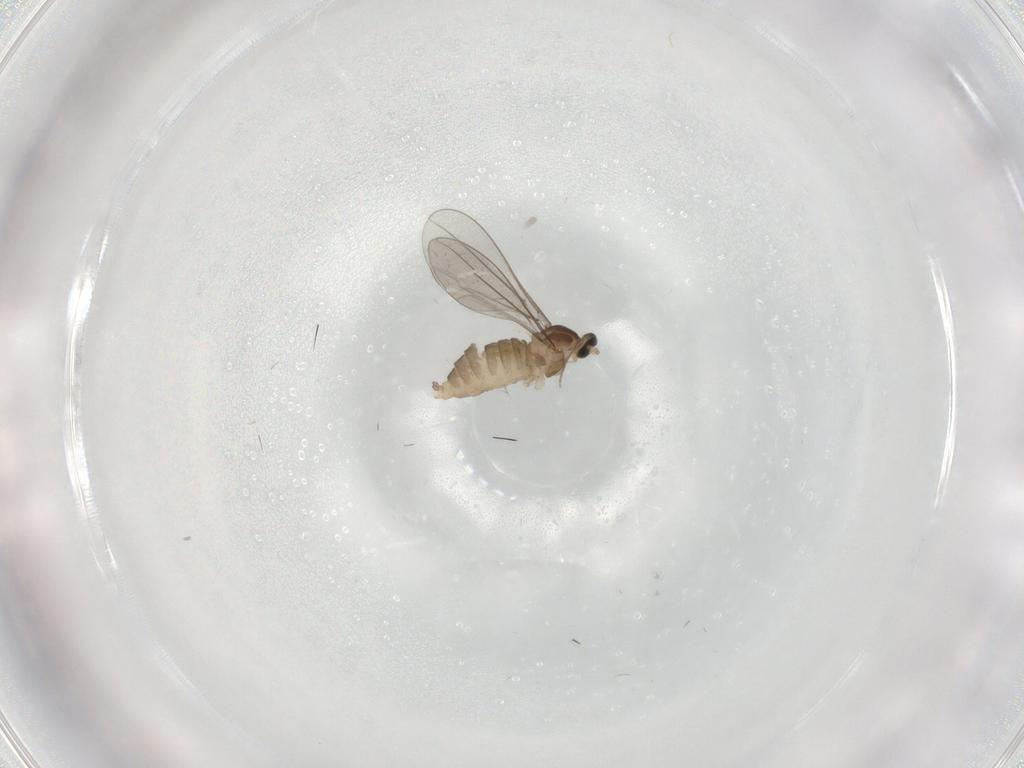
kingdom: Animalia
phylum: Arthropoda
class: Insecta
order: Diptera
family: Cecidomyiidae
